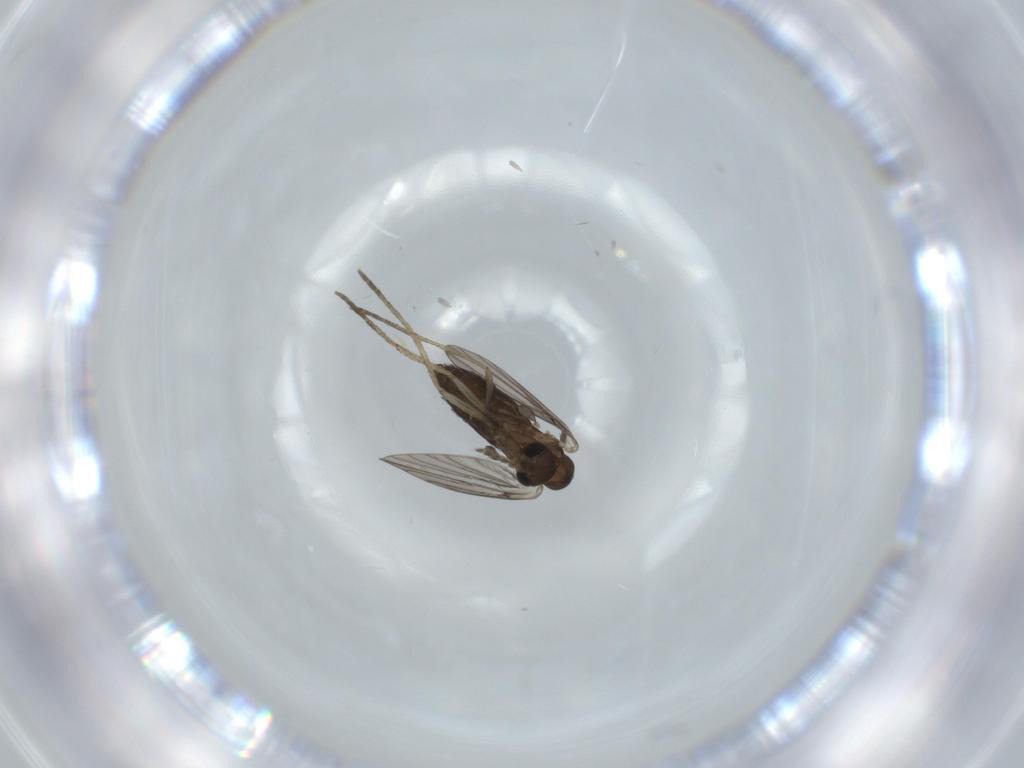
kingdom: Animalia
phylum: Arthropoda
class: Insecta
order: Diptera
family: Psychodidae
